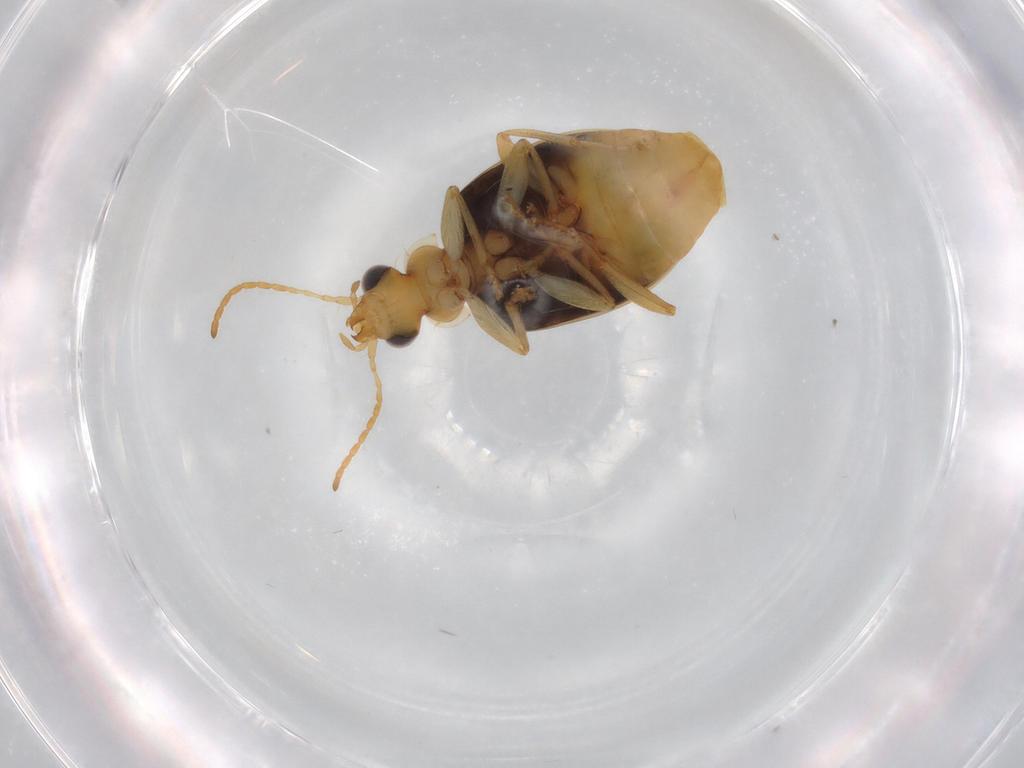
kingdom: Animalia
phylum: Arthropoda
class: Insecta
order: Coleoptera
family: Carabidae
